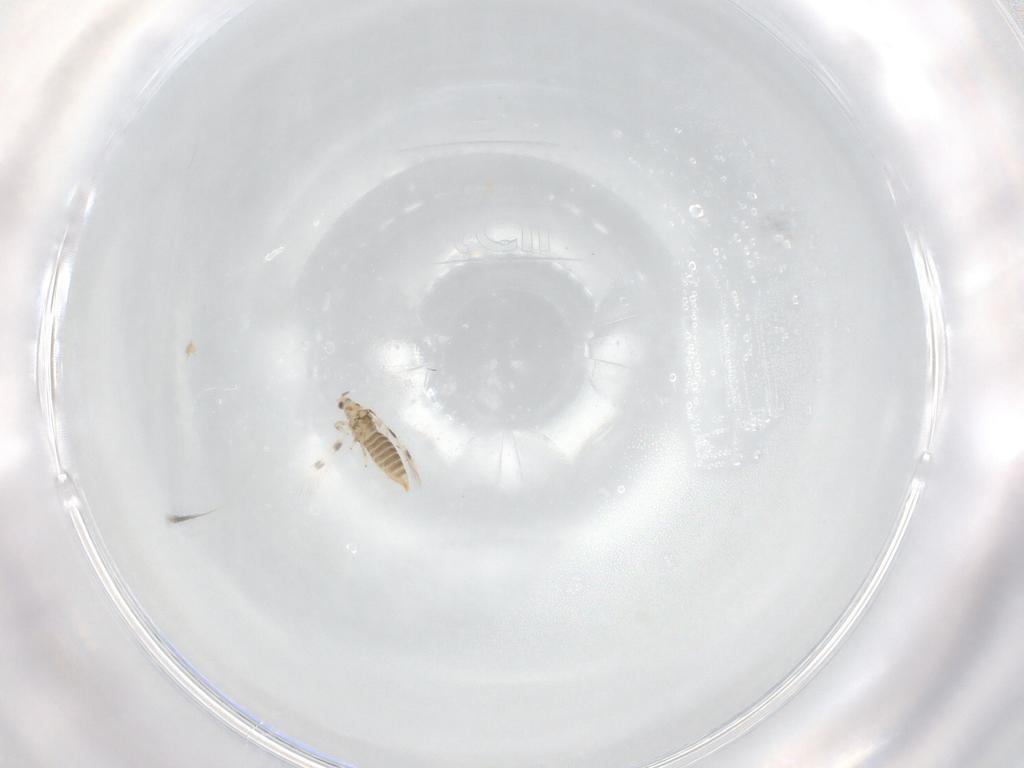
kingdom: Animalia
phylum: Arthropoda
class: Insecta
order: Thysanoptera
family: Thripidae
